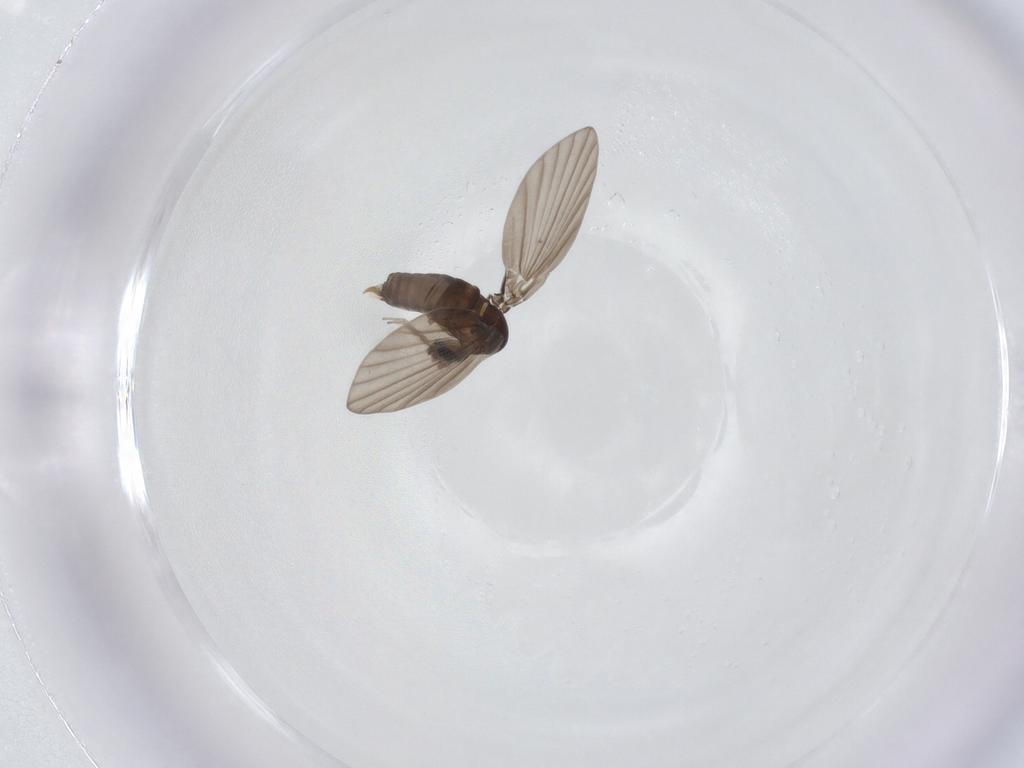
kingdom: Animalia
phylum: Arthropoda
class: Insecta
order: Diptera
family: Psychodidae
